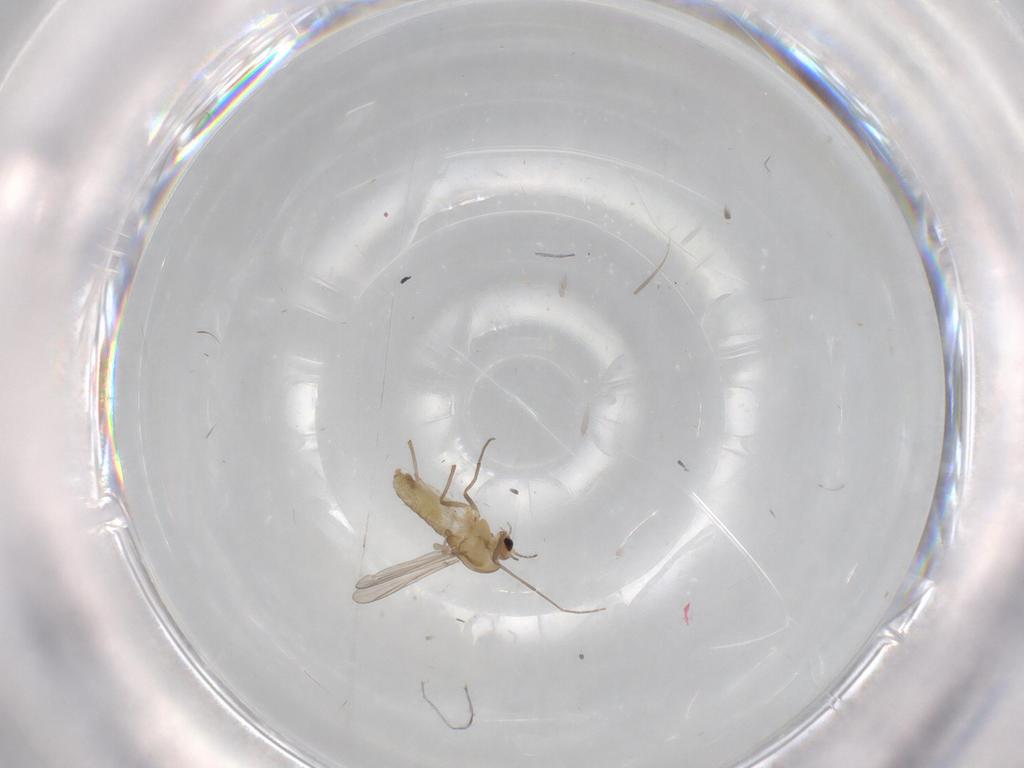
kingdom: Animalia
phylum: Arthropoda
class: Insecta
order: Diptera
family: Chironomidae
